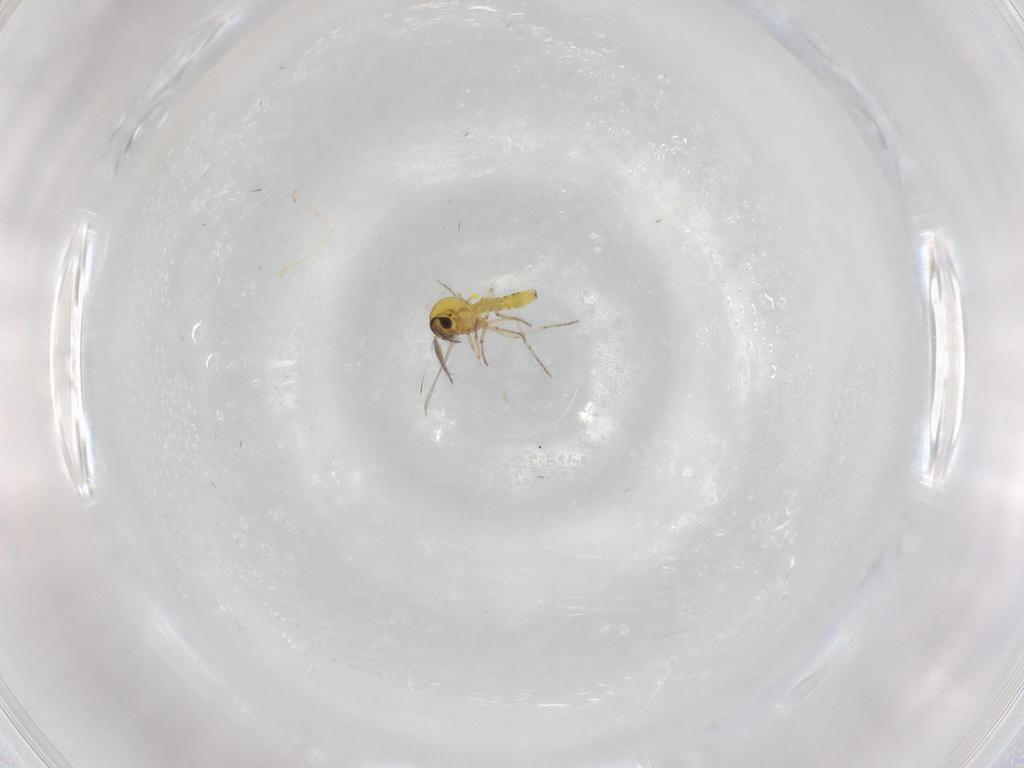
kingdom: Animalia
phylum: Arthropoda
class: Insecta
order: Diptera
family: Ceratopogonidae
